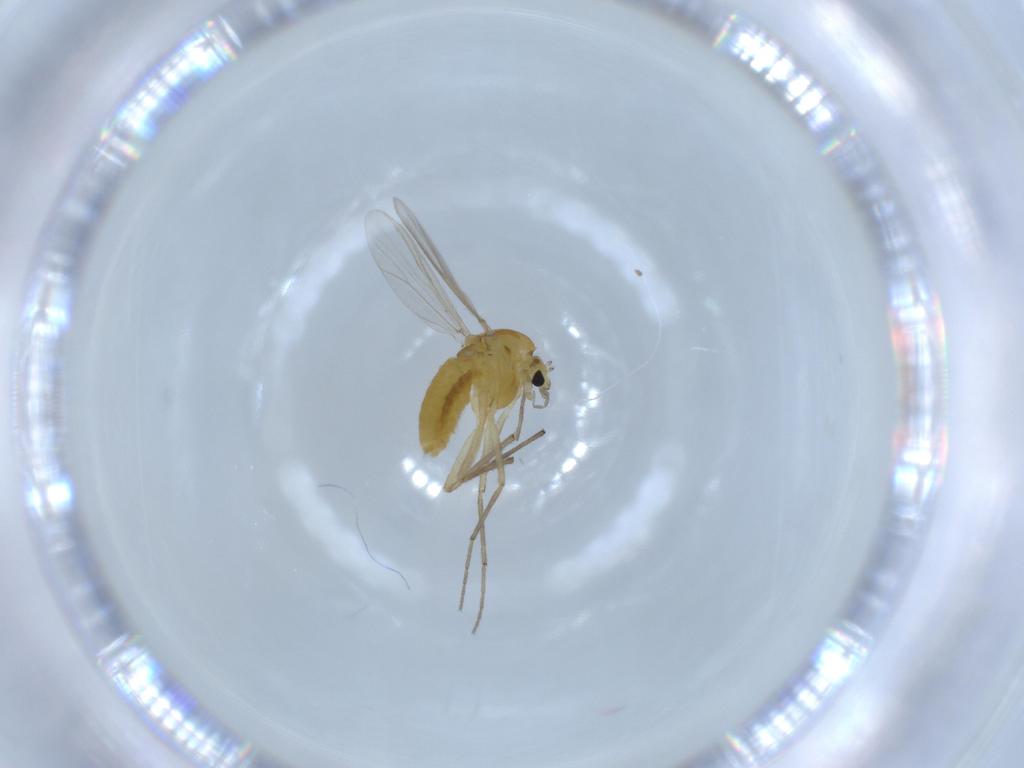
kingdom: Animalia
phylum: Arthropoda
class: Insecta
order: Diptera
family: Chironomidae
